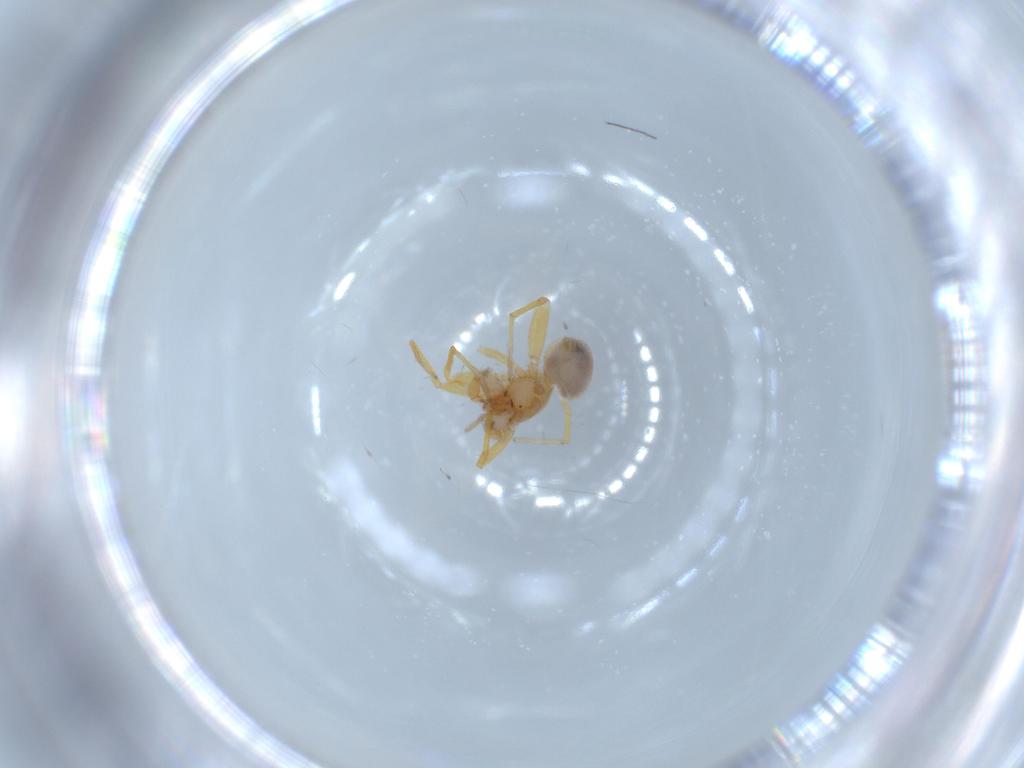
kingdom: Animalia
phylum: Arthropoda
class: Arachnida
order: Araneae
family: Oonopidae
